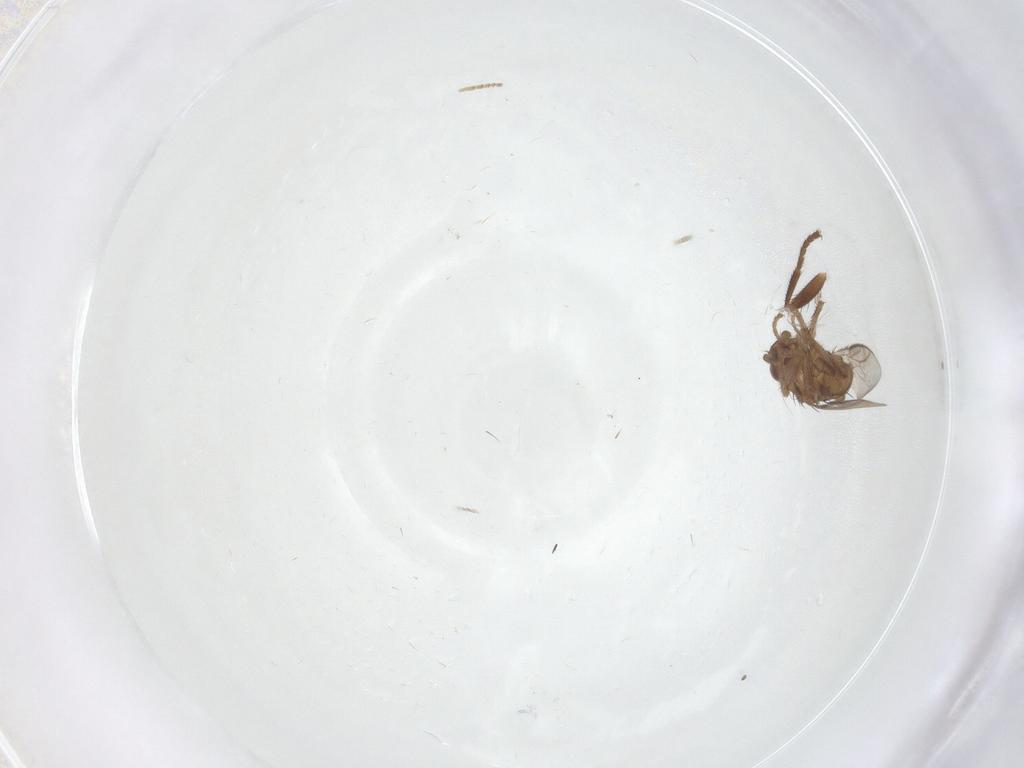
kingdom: Animalia
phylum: Arthropoda
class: Insecta
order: Diptera
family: Sphaeroceridae
